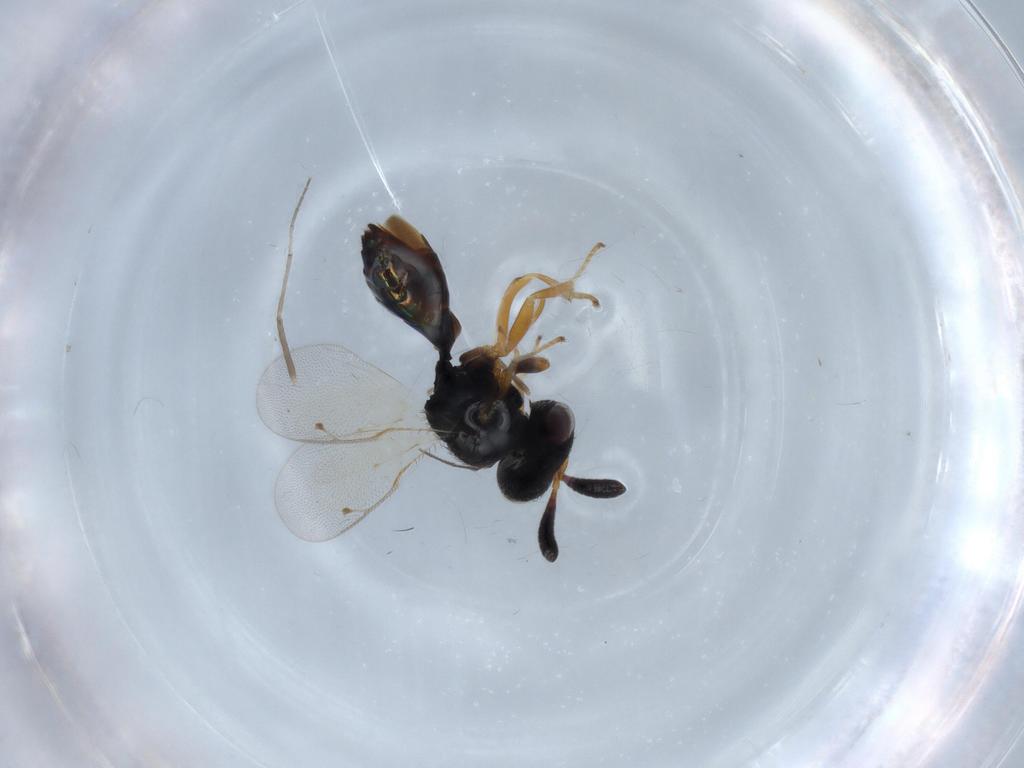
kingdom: Animalia
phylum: Arthropoda
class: Insecta
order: Hymenoptera
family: Agaonidae
